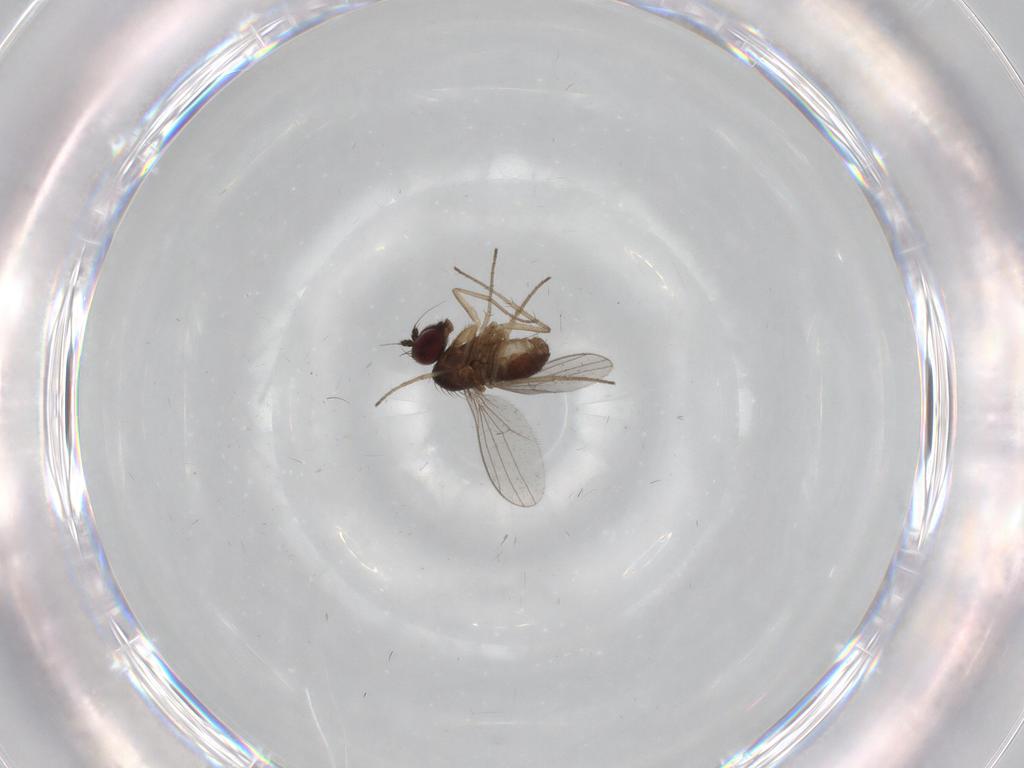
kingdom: Animalia
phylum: Arthropoda
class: Insecta
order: Diptera
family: Dolichopodidae
